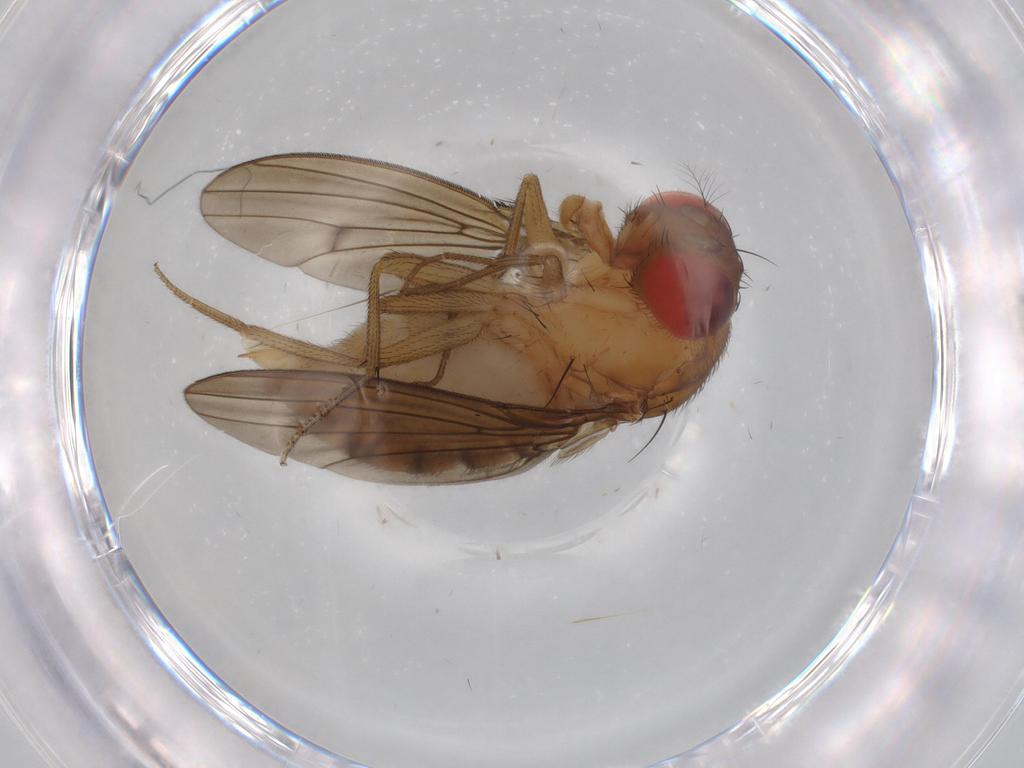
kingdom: Animalia
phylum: Arthropoda
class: Insecta
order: Diptera
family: Drosophilidae
